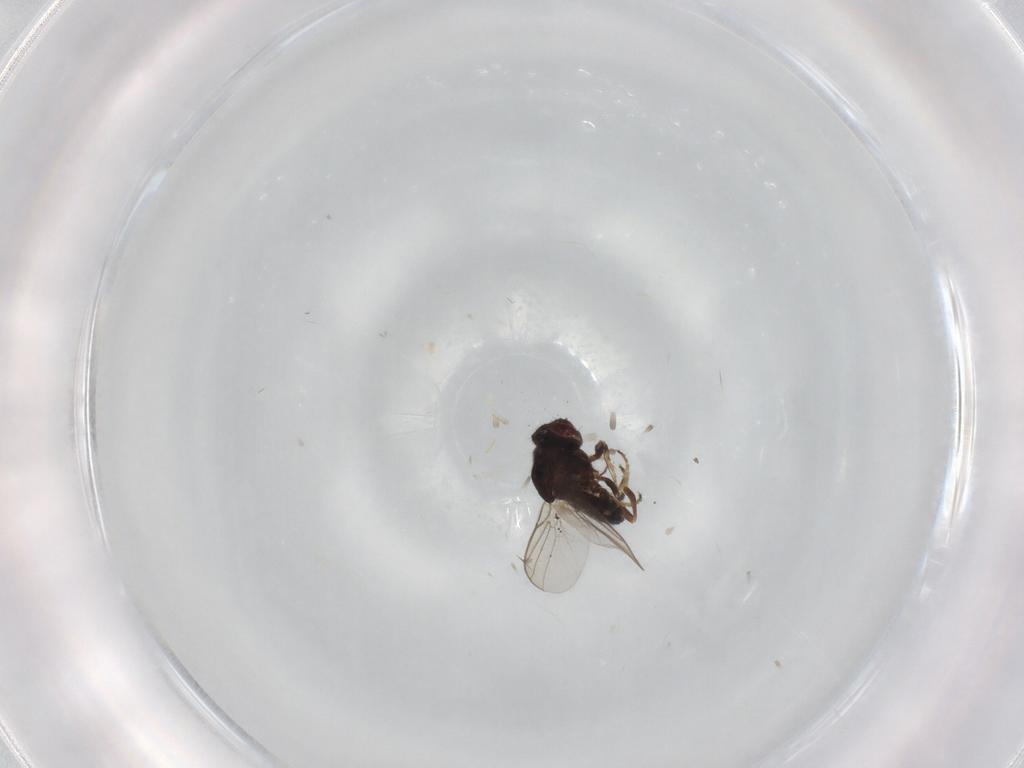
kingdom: Animalia
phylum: Arthropoda
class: Insecta
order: Diptera
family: Chloropidae
